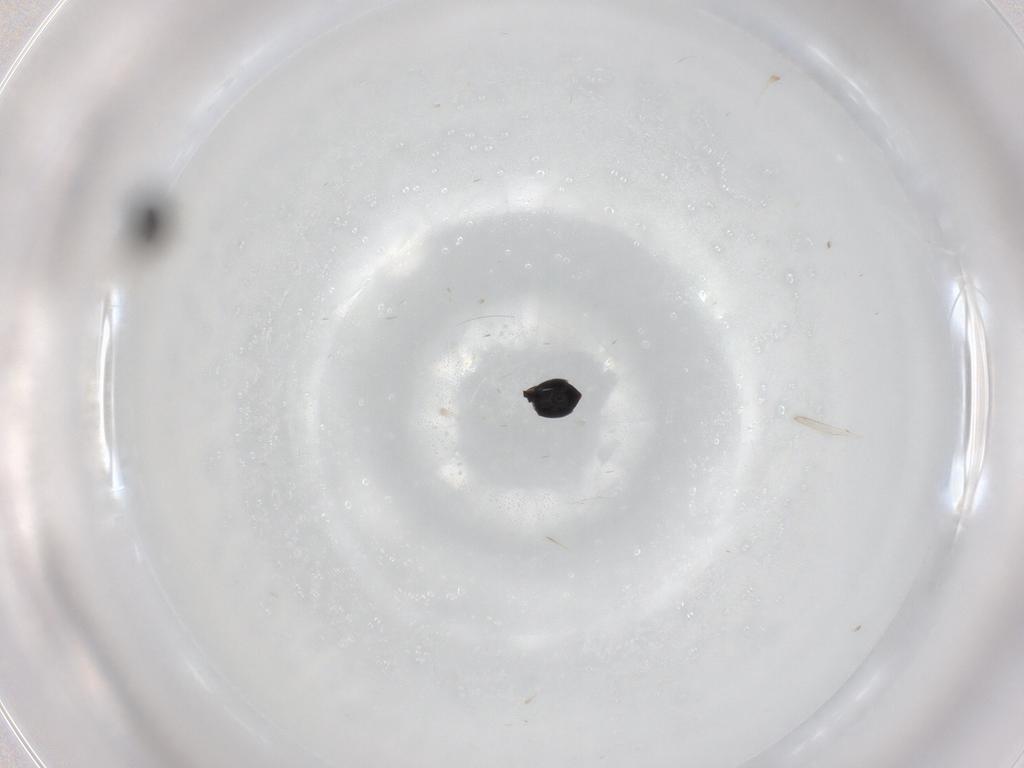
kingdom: Animalia
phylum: Arthropoda
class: Insecta
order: Hymenoptera
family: Scelionidae
